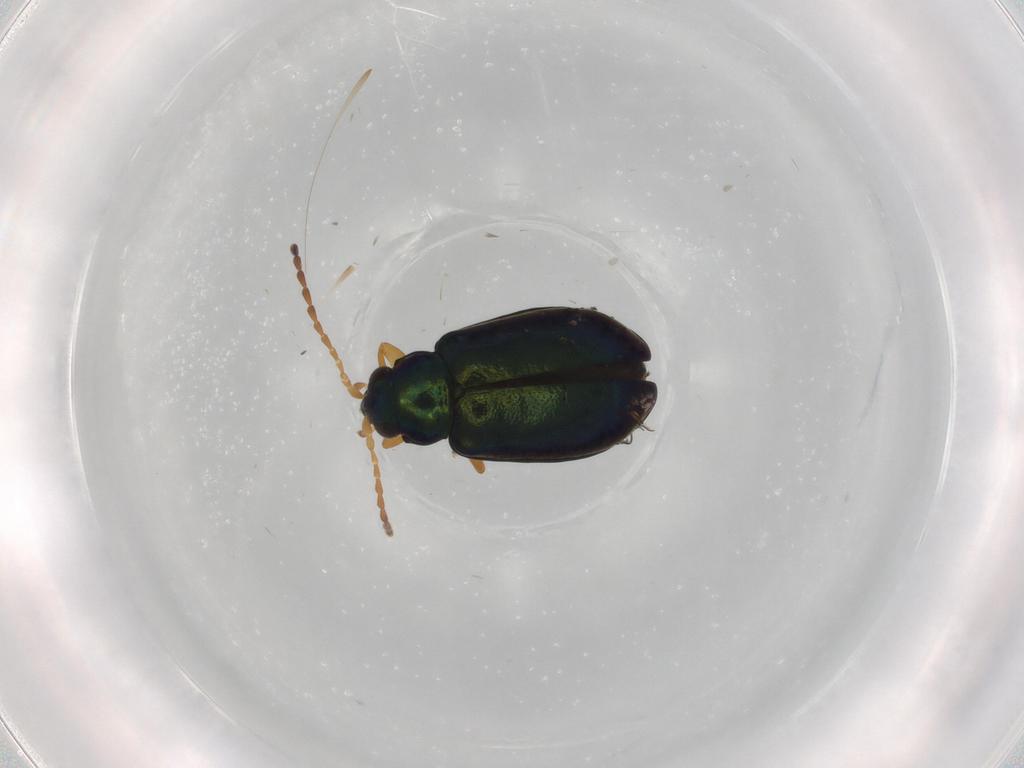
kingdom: Animalia
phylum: Arthropoda
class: Insecta
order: Coleoptera
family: Chrysomelidae
